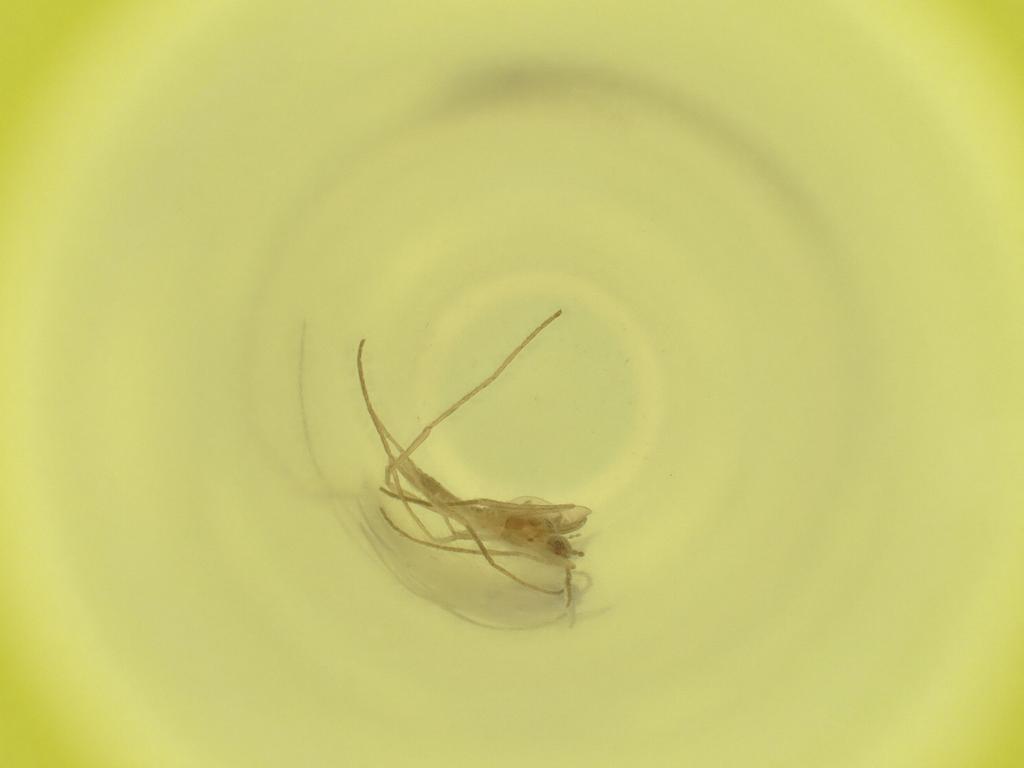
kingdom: Animalia
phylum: Arthropoda
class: Insecta
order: Diptera
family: Cecidomyiidae
